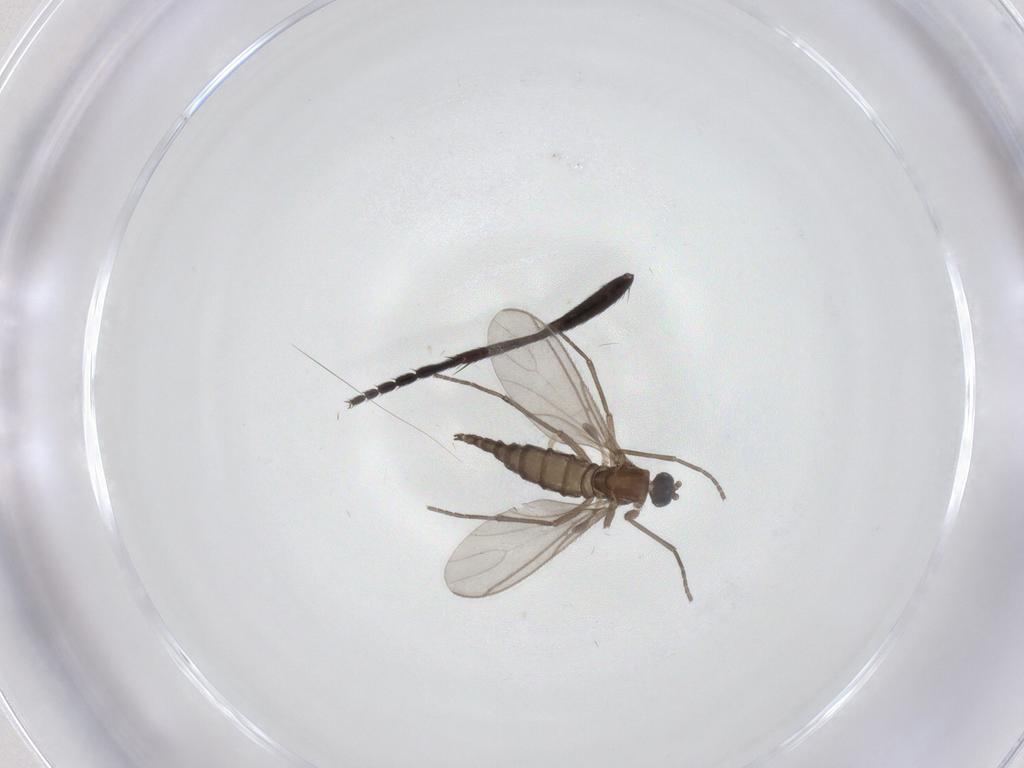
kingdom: Animalia
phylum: Arthropoda
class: Insecta
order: Diptera
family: Sciaridae
